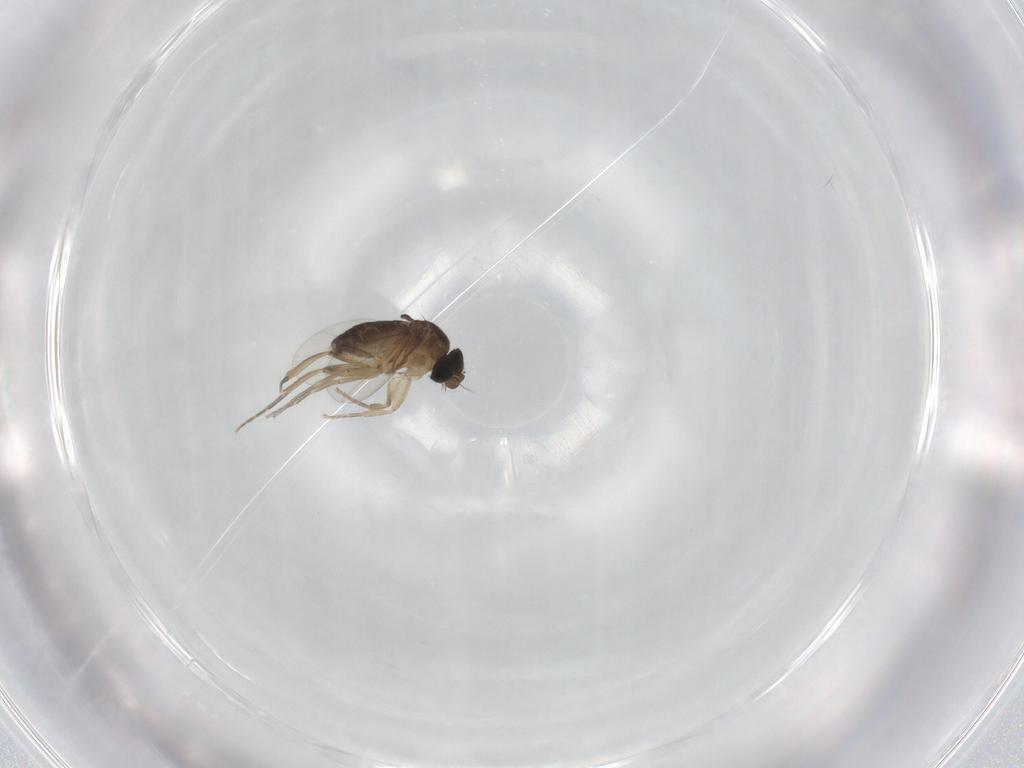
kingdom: Animalia
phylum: Arthropoda
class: Insecta
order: Diptera
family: Phoridae
